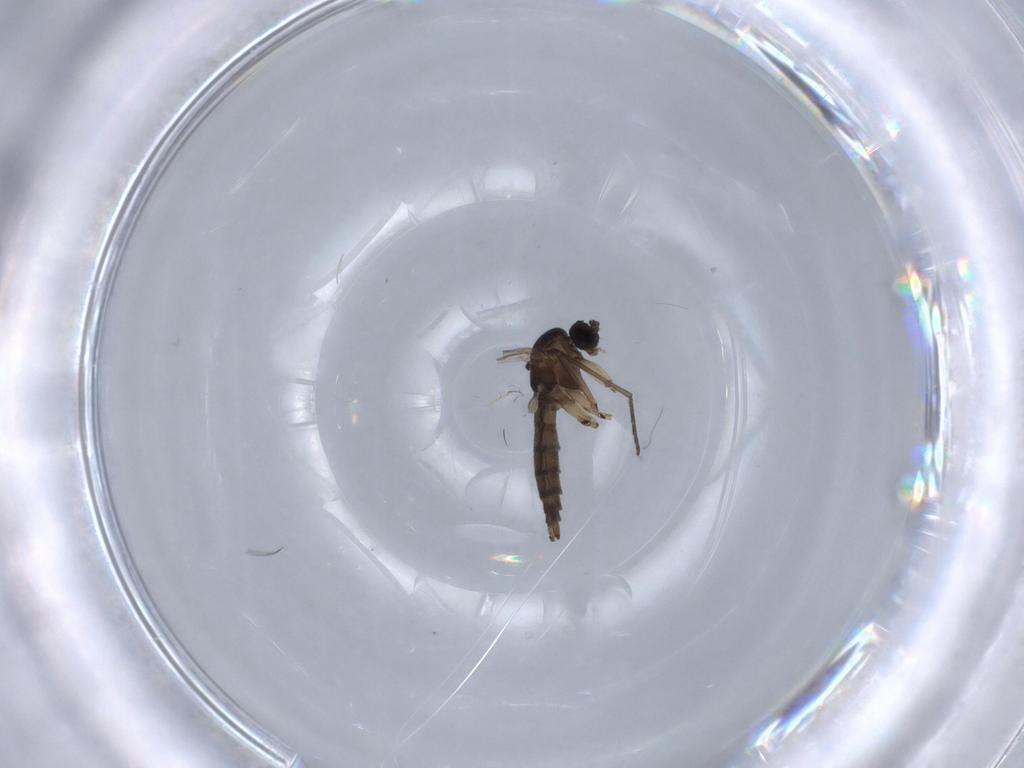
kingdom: Animalia
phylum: Arthropoda
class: Insecta
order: Diptera
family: Sciaridae
